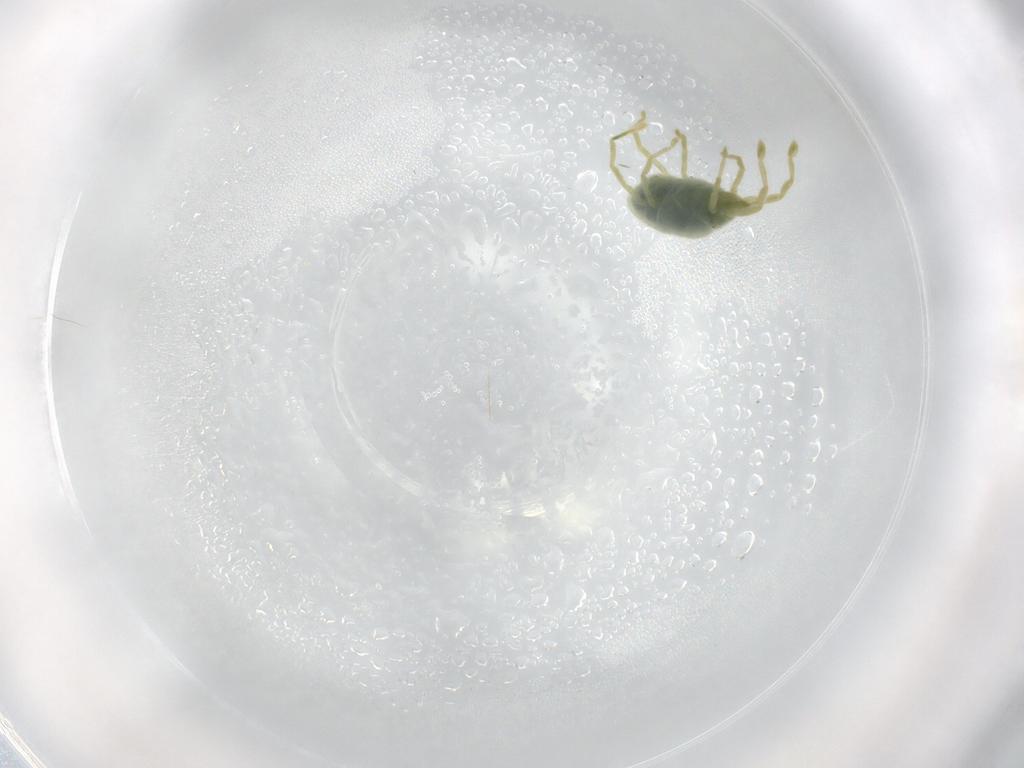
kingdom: Animalia
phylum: Arthropoda
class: Arachnida
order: Trombidiformes
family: Erythraeidae
